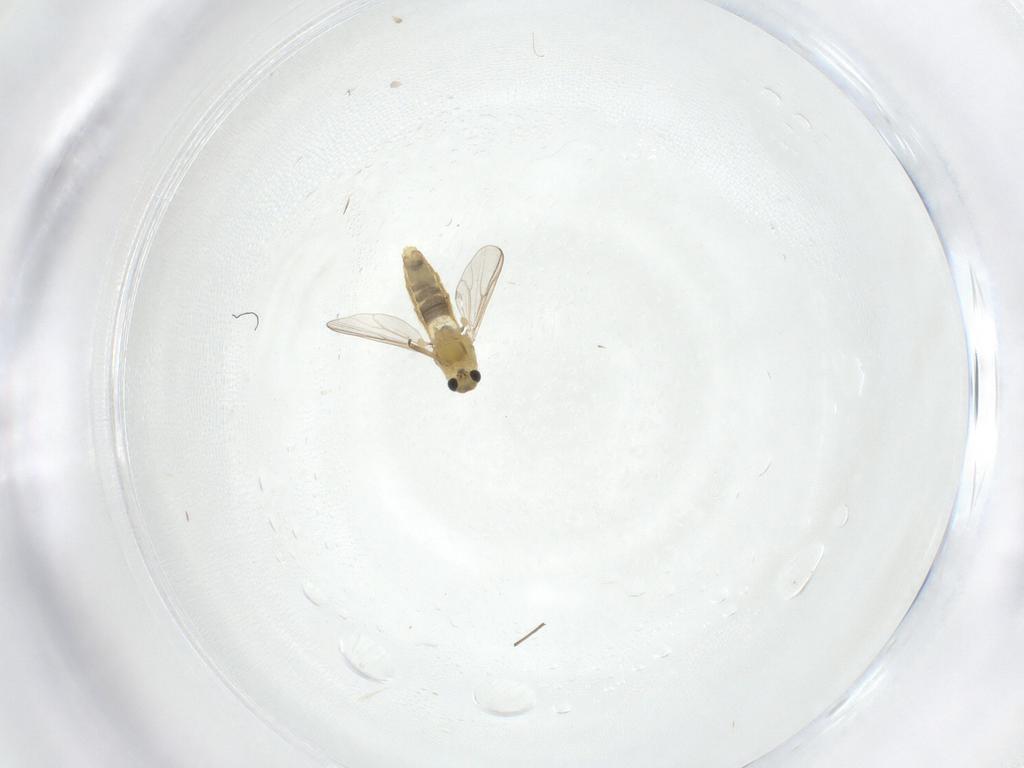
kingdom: Animalia
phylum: Arthropoda
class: Insecta
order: Diptera
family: Chironomidae
